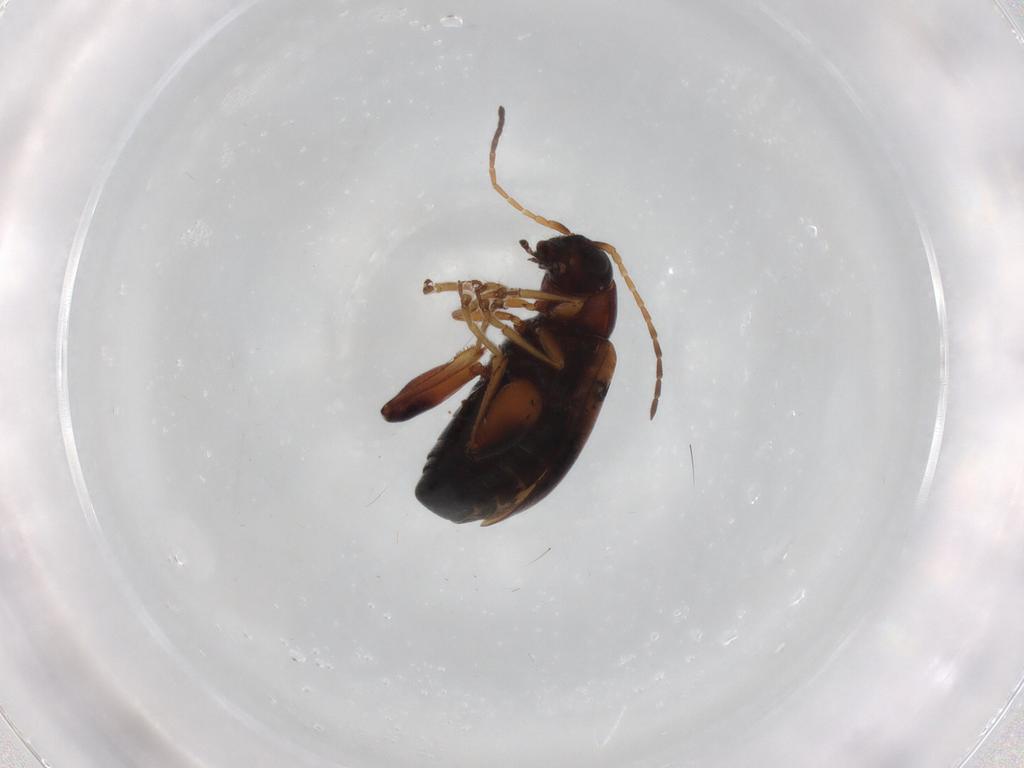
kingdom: Animalia
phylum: Arthropoda
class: Insecta
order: Coleoptera
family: Chrysomelidae
